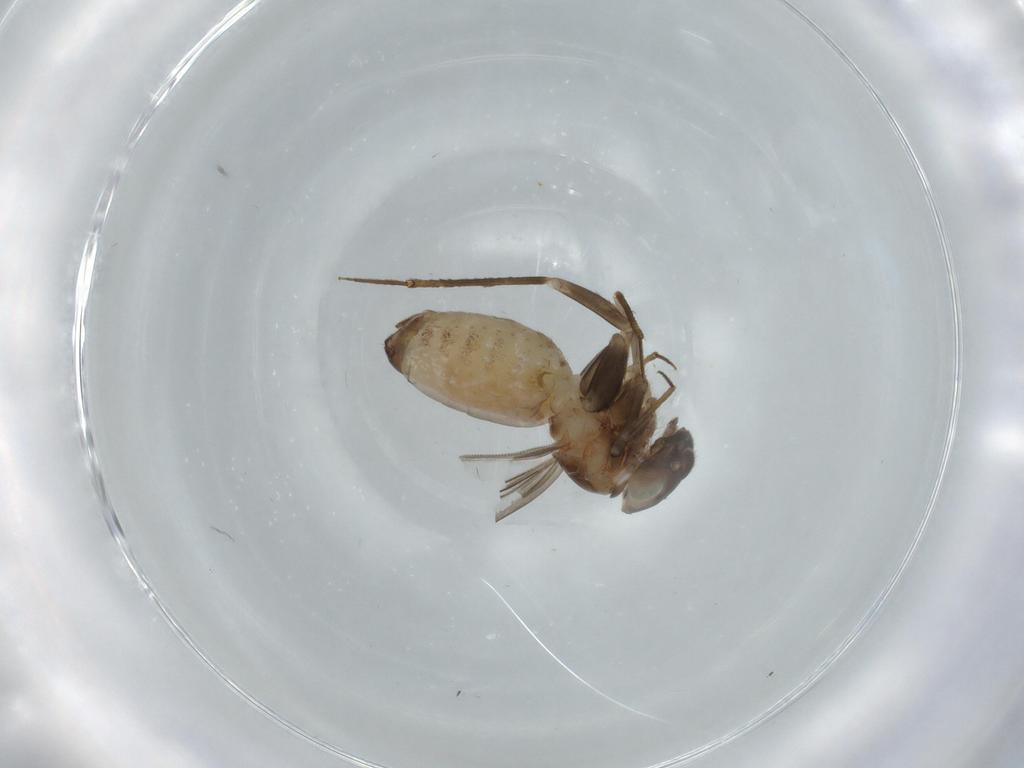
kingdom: Animalia
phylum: Arthropoda
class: Insecta
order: Psocodea
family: Lepidopsocidae
